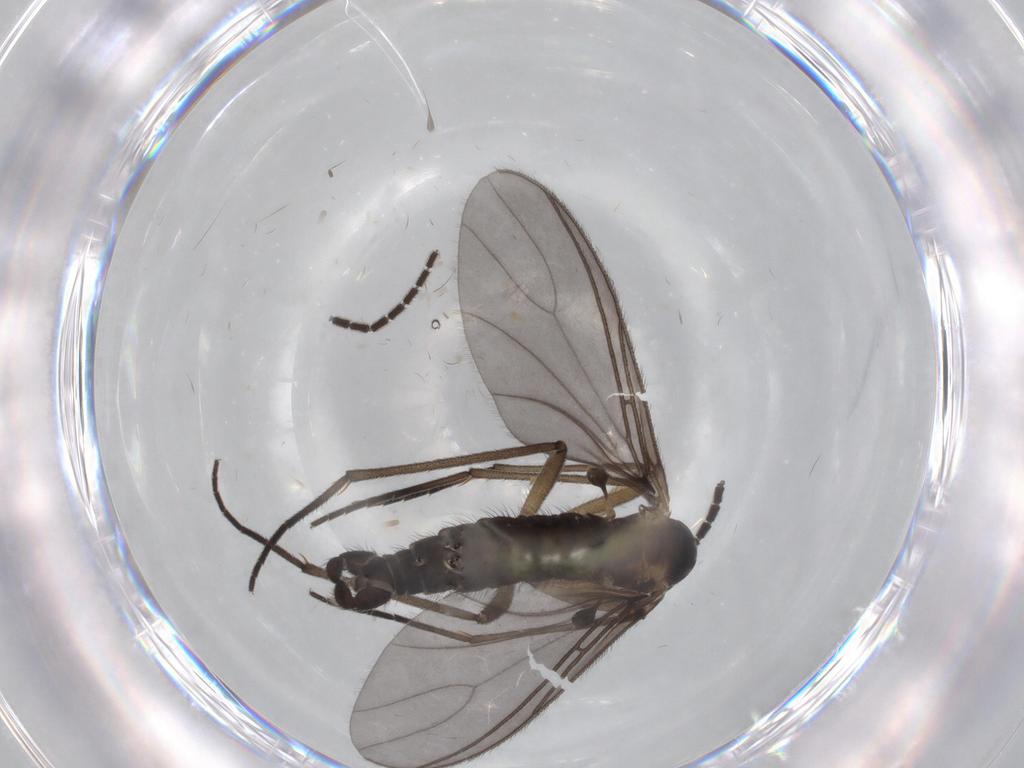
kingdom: Animalia
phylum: Arthropoda
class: Insecta
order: Diptera
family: Sciaridae
